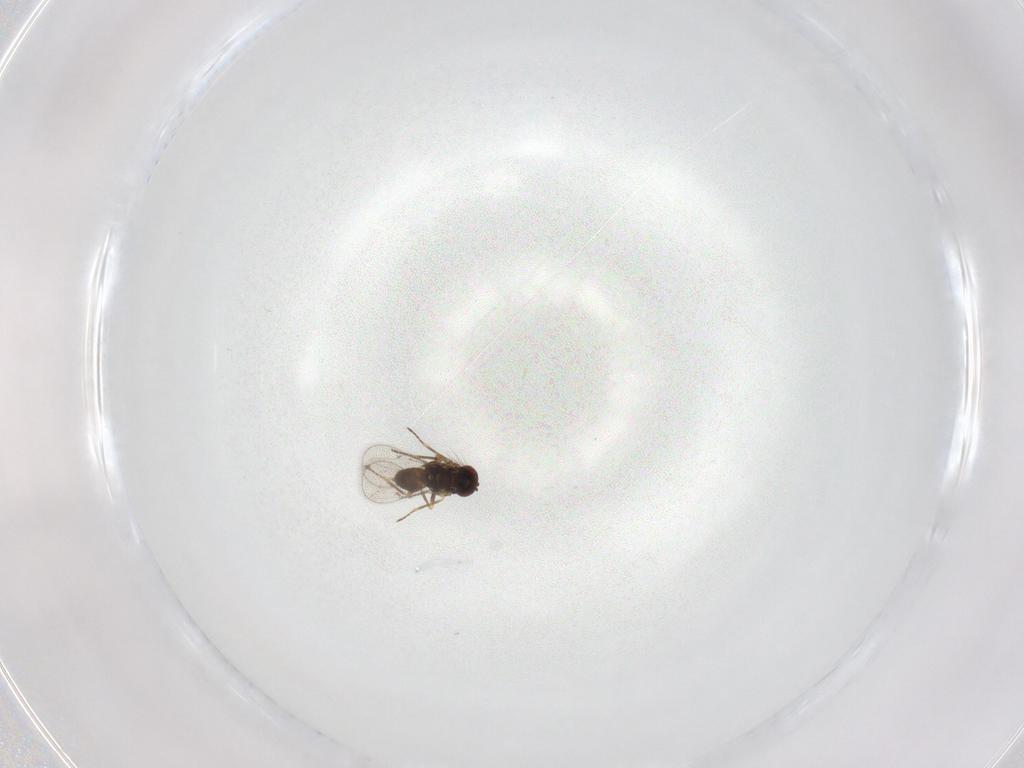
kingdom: Animalia
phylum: Arthropoda
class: Insecta
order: Hymenoptera
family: Eulophidae
